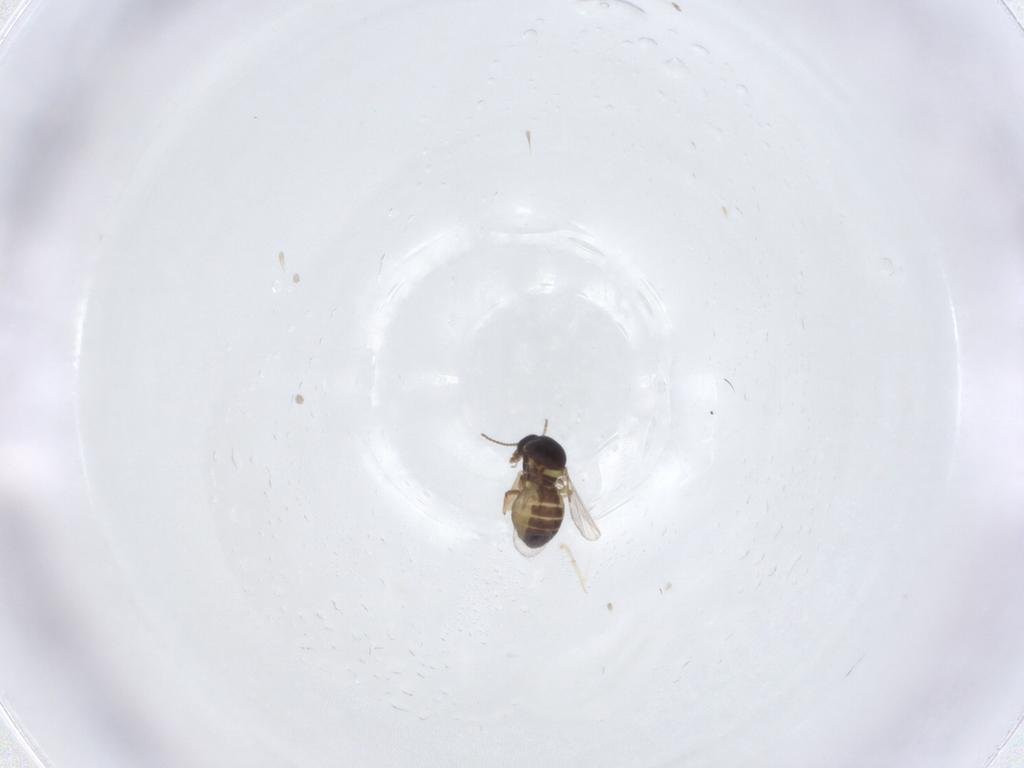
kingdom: Animalia
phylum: Arthropoda
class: Insecta
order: Diptera
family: Ceratopogonidae
